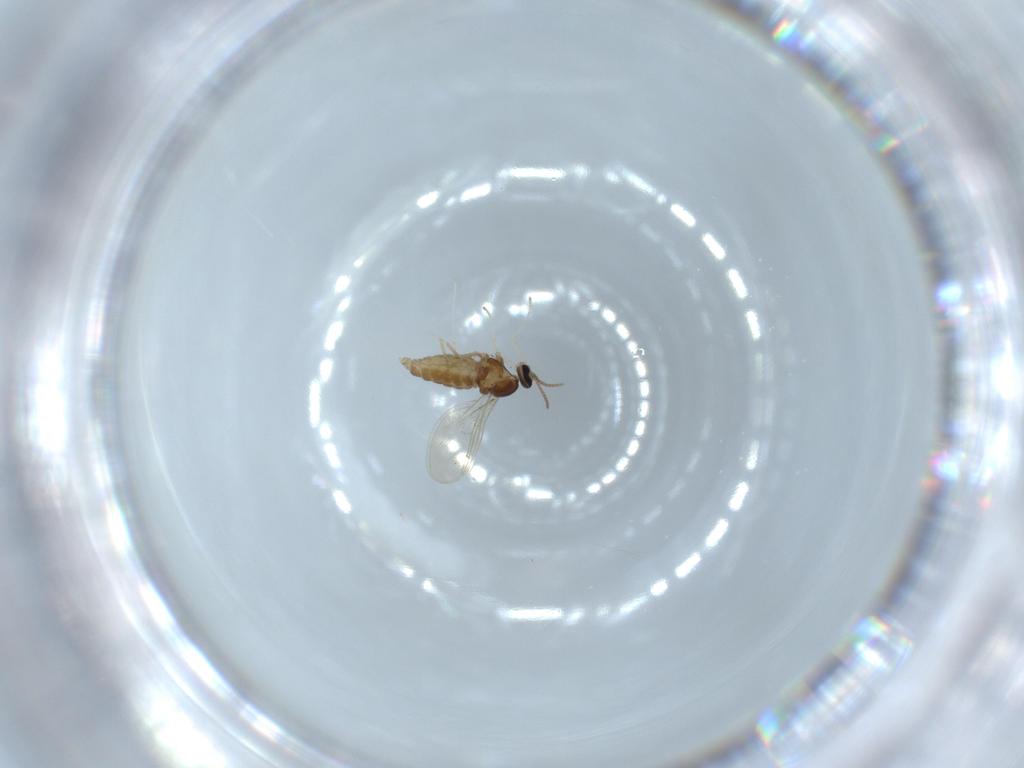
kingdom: Animalia
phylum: Arthropoda
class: Insecta
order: Diptera
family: Cecidomyiidae
